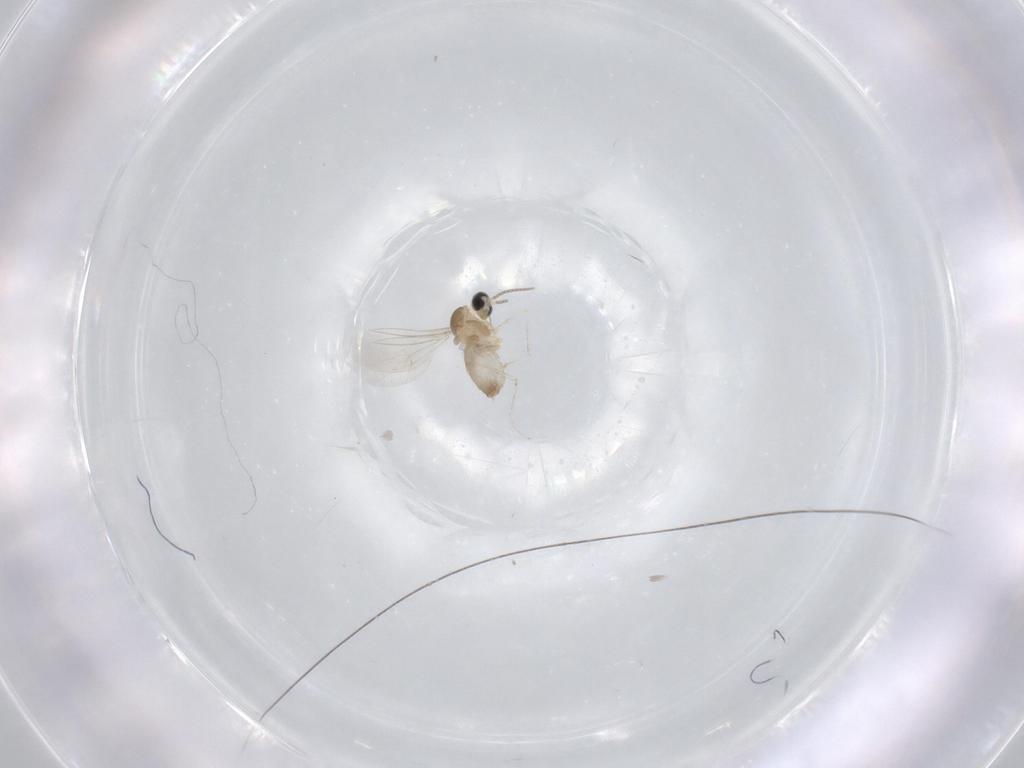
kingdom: Animalia
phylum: Arthropoda
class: Insecta
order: Diptera
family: Cecidomyiidae
